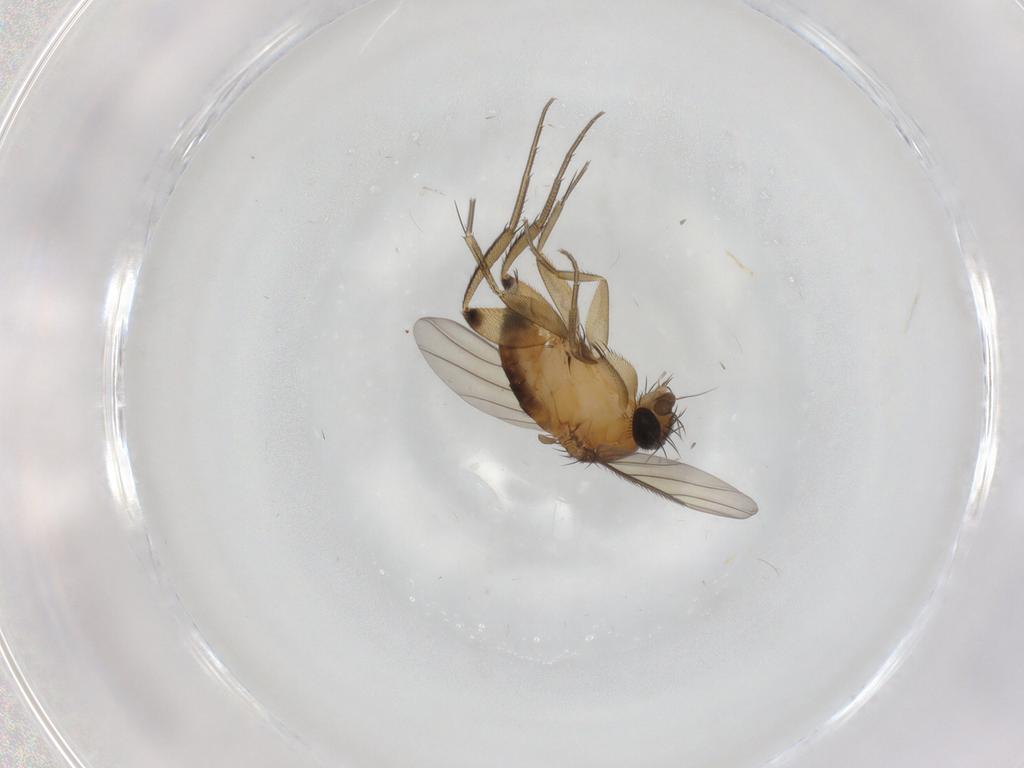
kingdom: Animalia
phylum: Arthropoda
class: Insecta
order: Diptera
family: Phoridae
